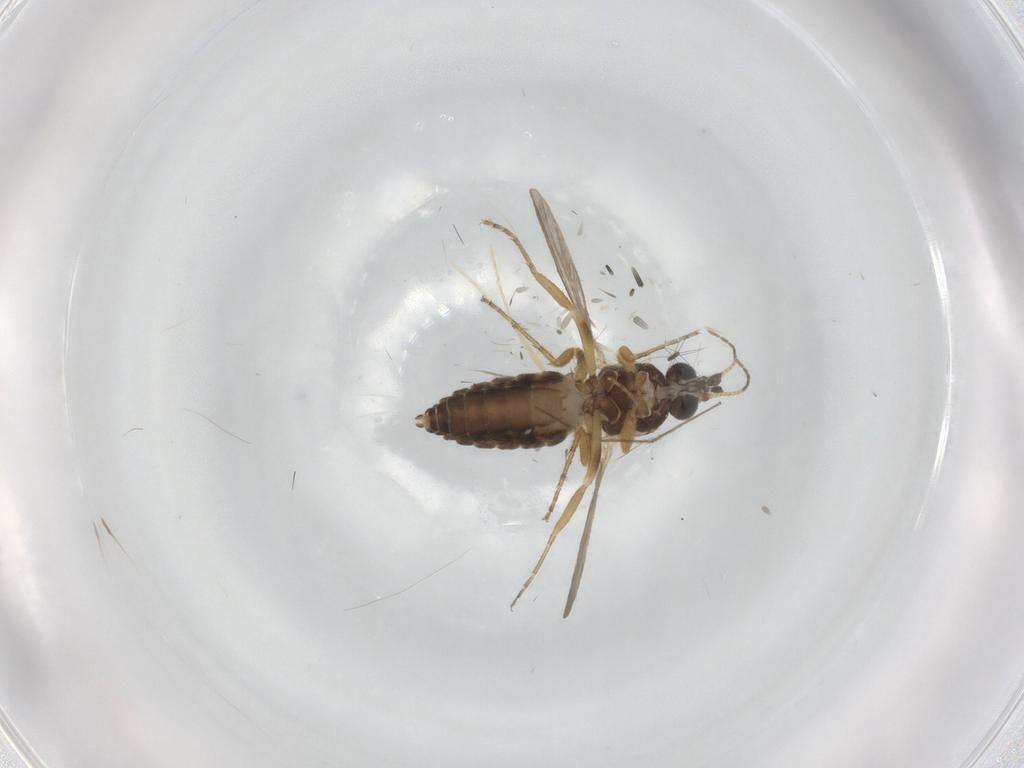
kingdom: Animalia
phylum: Arthropoda
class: Insecta
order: Diptera
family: Ceratopogonidae
